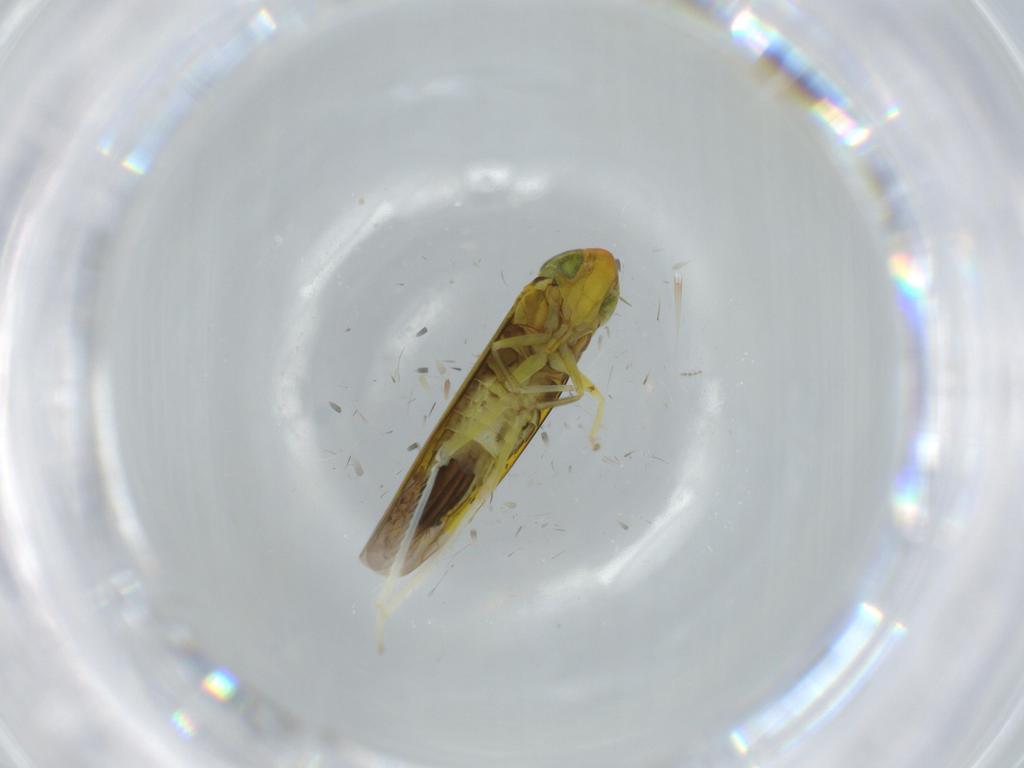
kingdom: Animalia
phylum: Arthropoda
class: Insecta
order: Hemiptera
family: Cicadellidae
